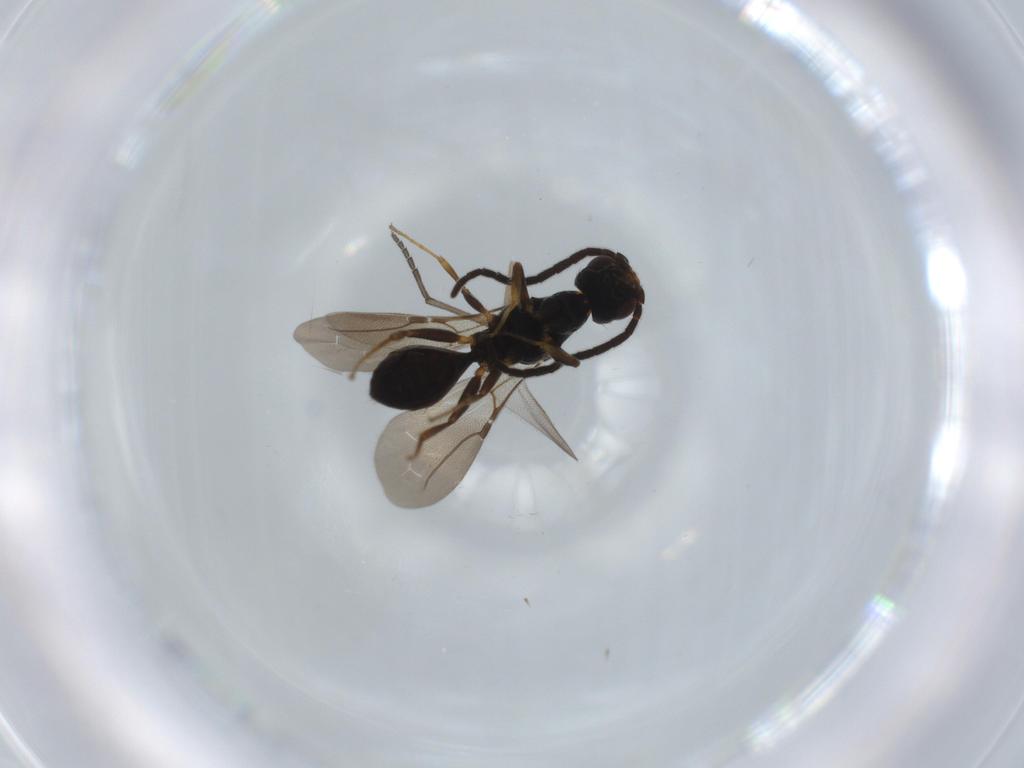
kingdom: Animalia
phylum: Arthropoda
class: Insecta
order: Hymenoptera
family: Bethylidae
